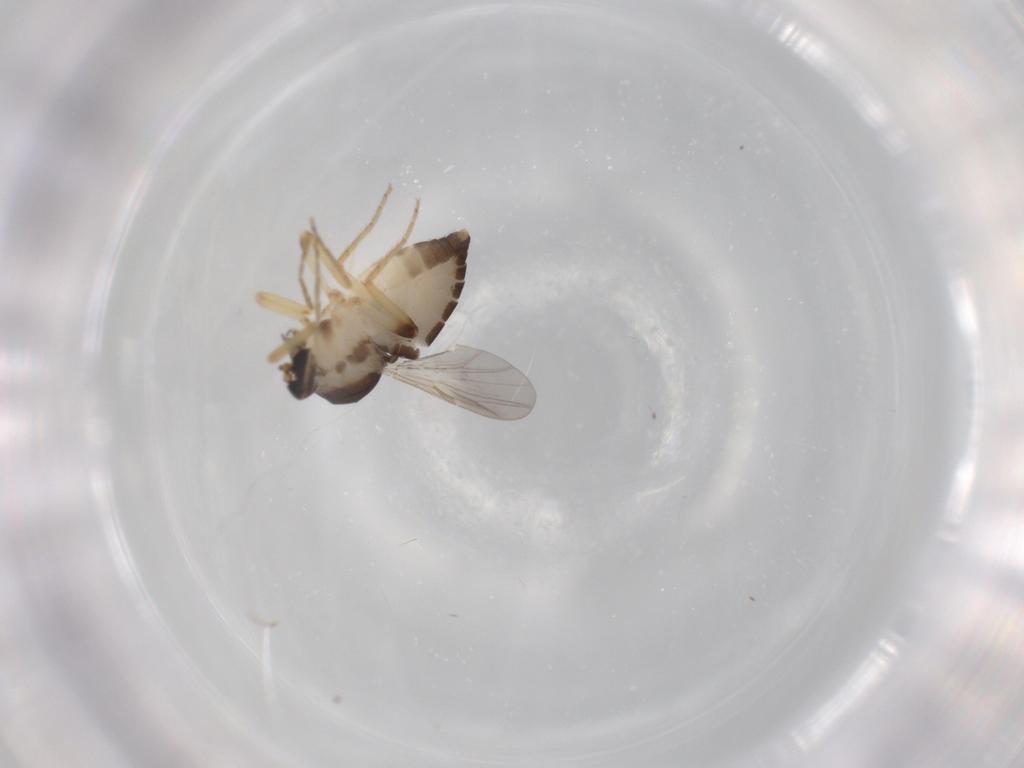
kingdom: Animalia
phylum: Arthropoda
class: Insecta
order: Diptera
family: Ceratopogonidae
